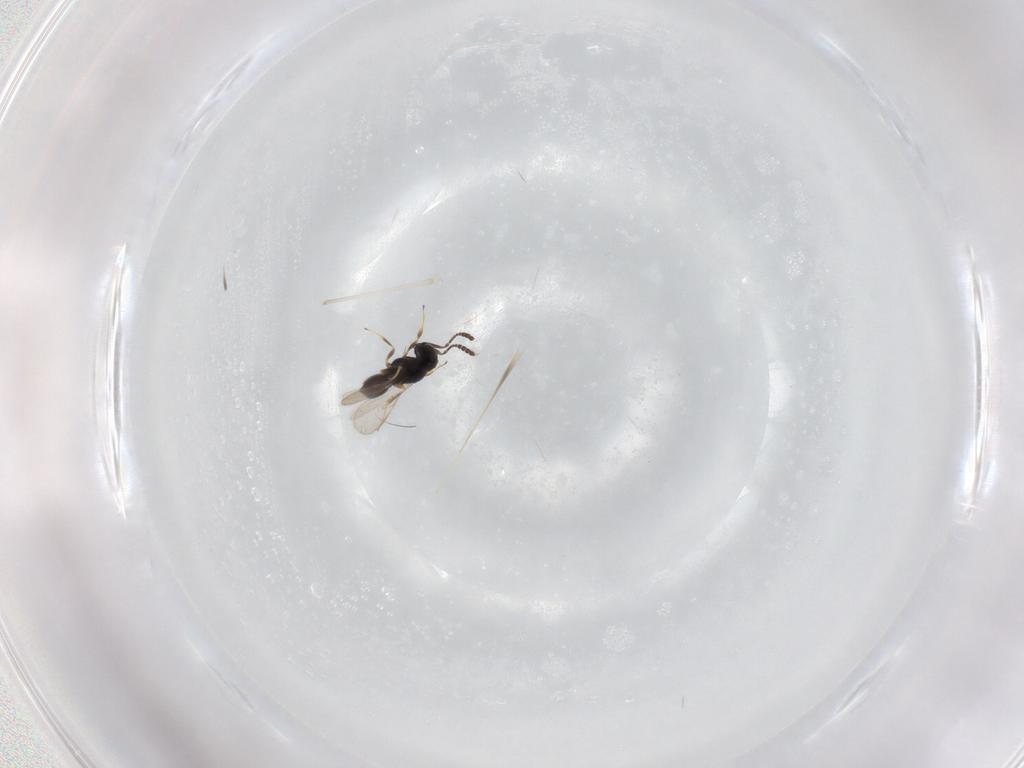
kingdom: Animalia
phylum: Arthropoda
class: Insecta
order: Hymenoptera
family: Scelionidae
